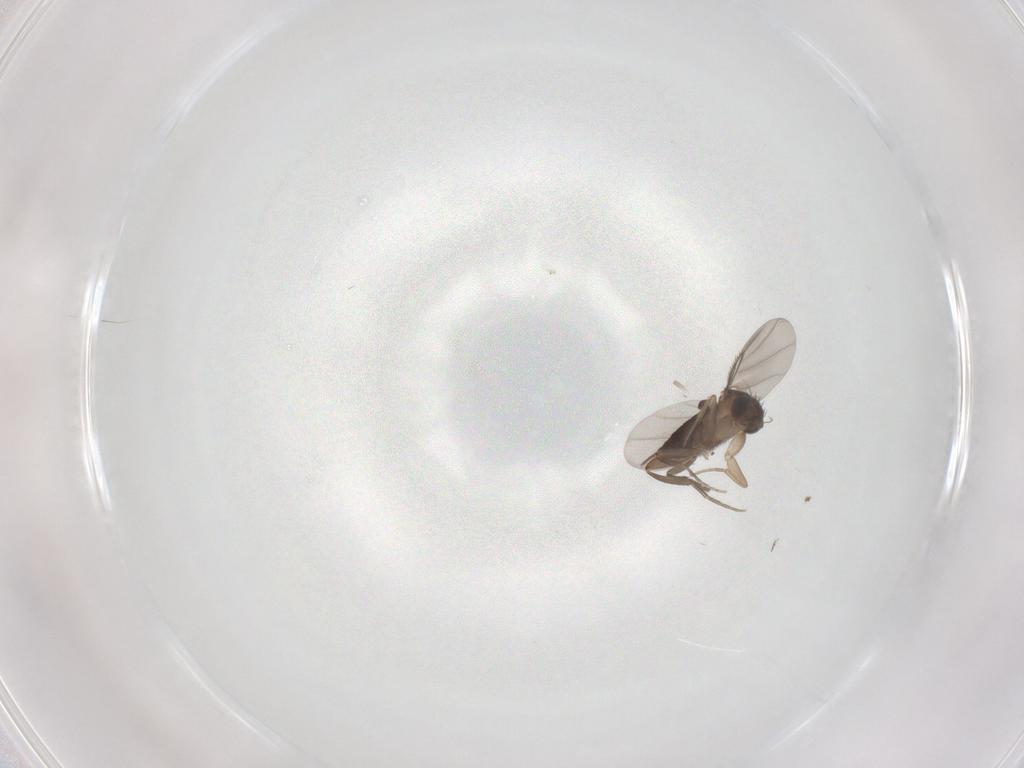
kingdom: Animalia
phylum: Arthropoda
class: Insecta
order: Diptera
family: Phoridae
